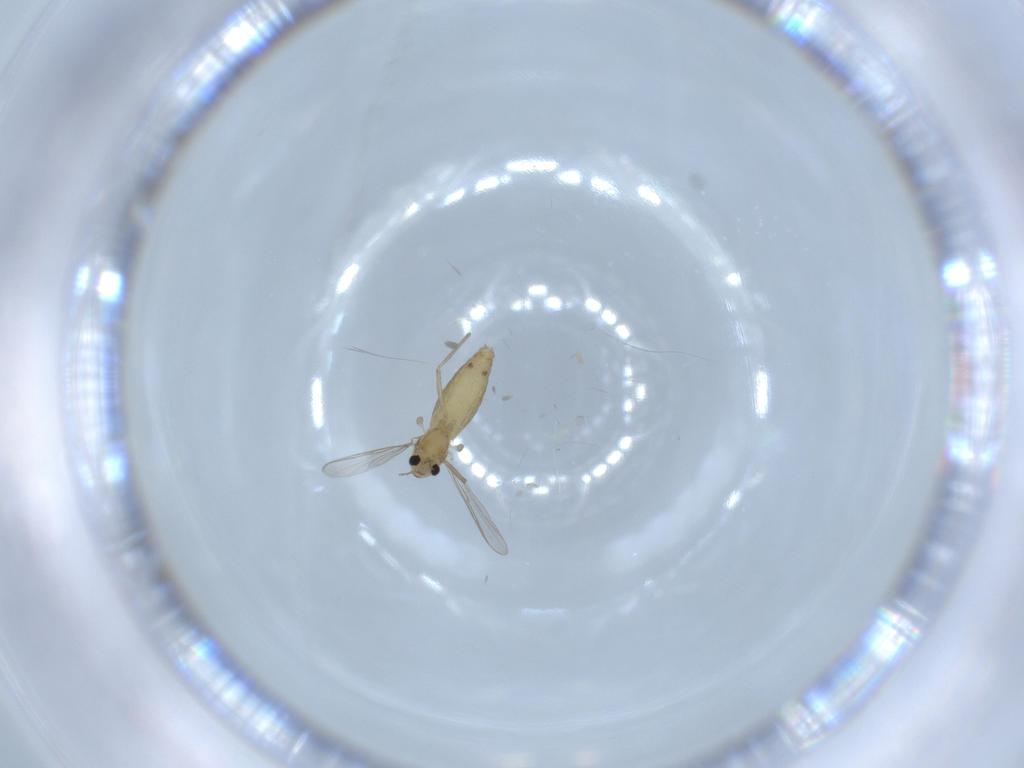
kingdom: Animalia
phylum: Arthropoda
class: Insecta
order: Diptera
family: Chironomidae
